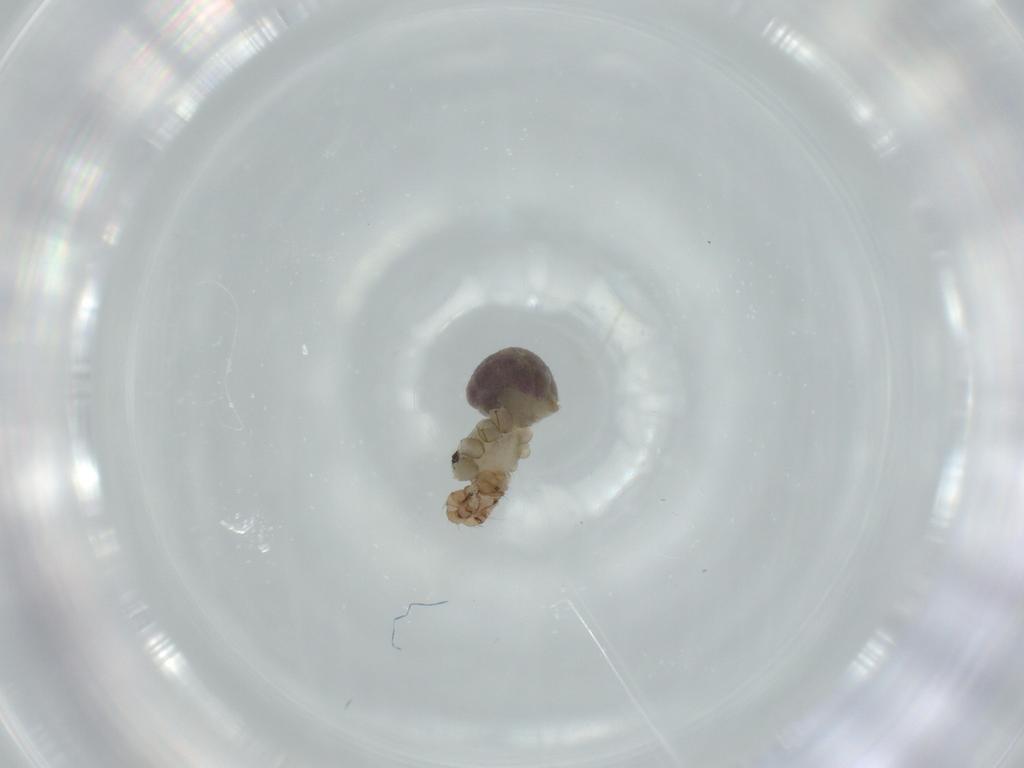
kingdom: Animalia
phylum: Arthropoda
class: Arachnida
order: Araneae
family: Pholcidae
